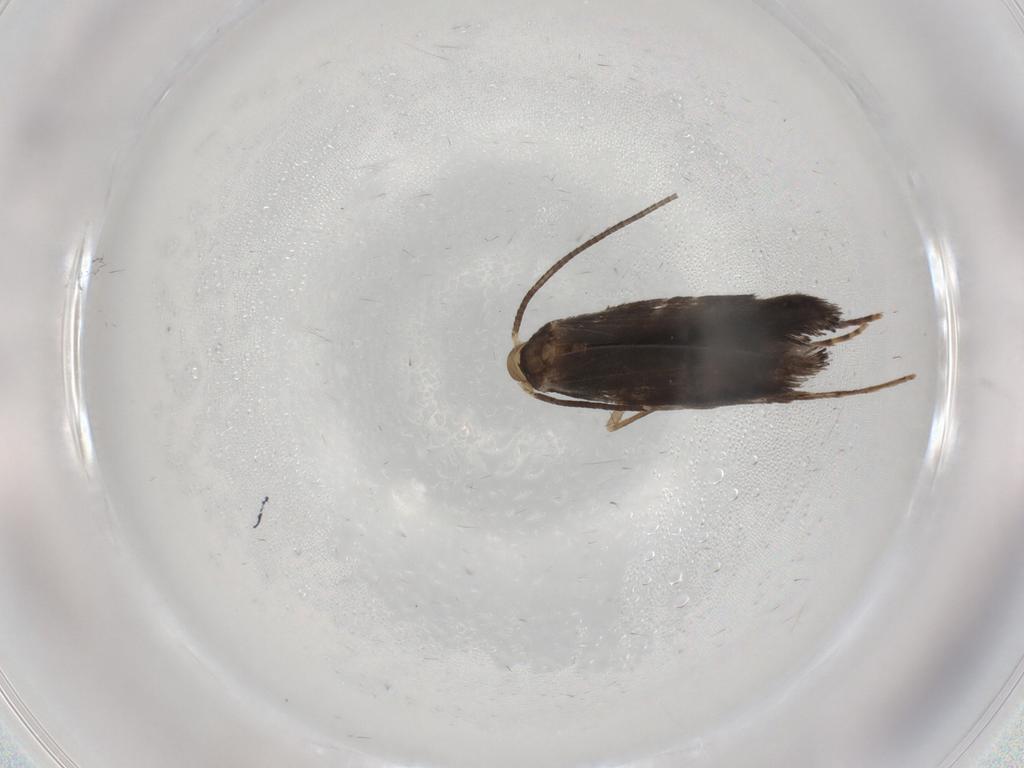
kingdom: Animalia
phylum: Arthropoda
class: Insecta
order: Lepidoptera
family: Gracillariidae
